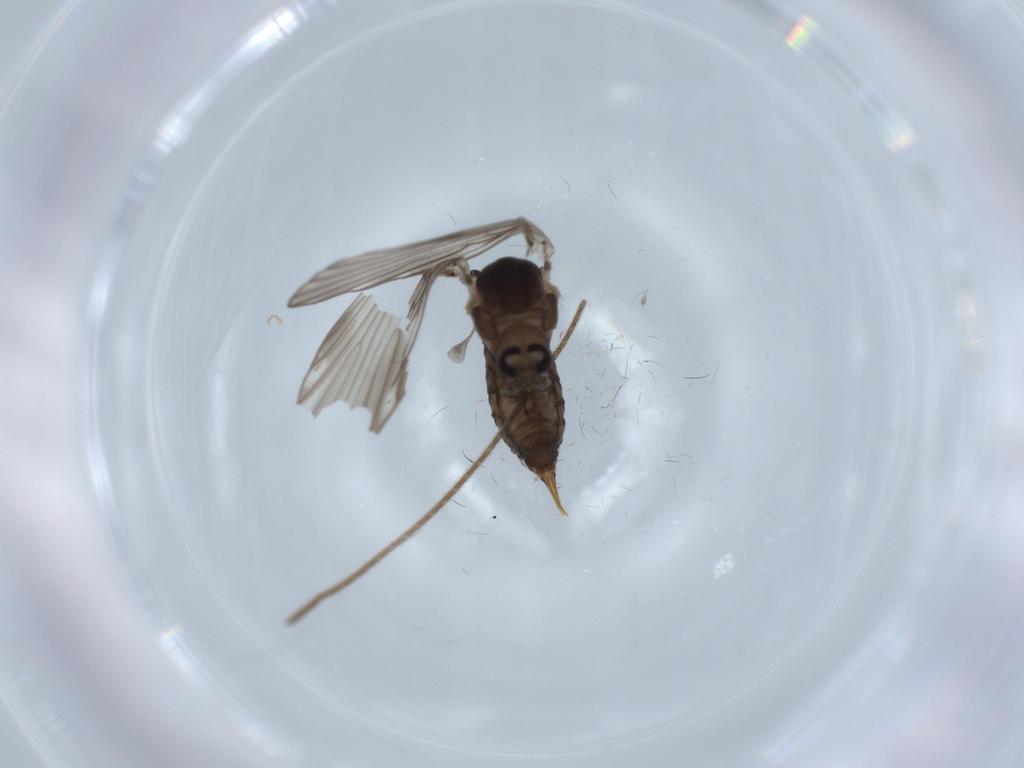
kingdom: Animalia
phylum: Arthropoda
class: Insecta
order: Diptera
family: Psychodidae
